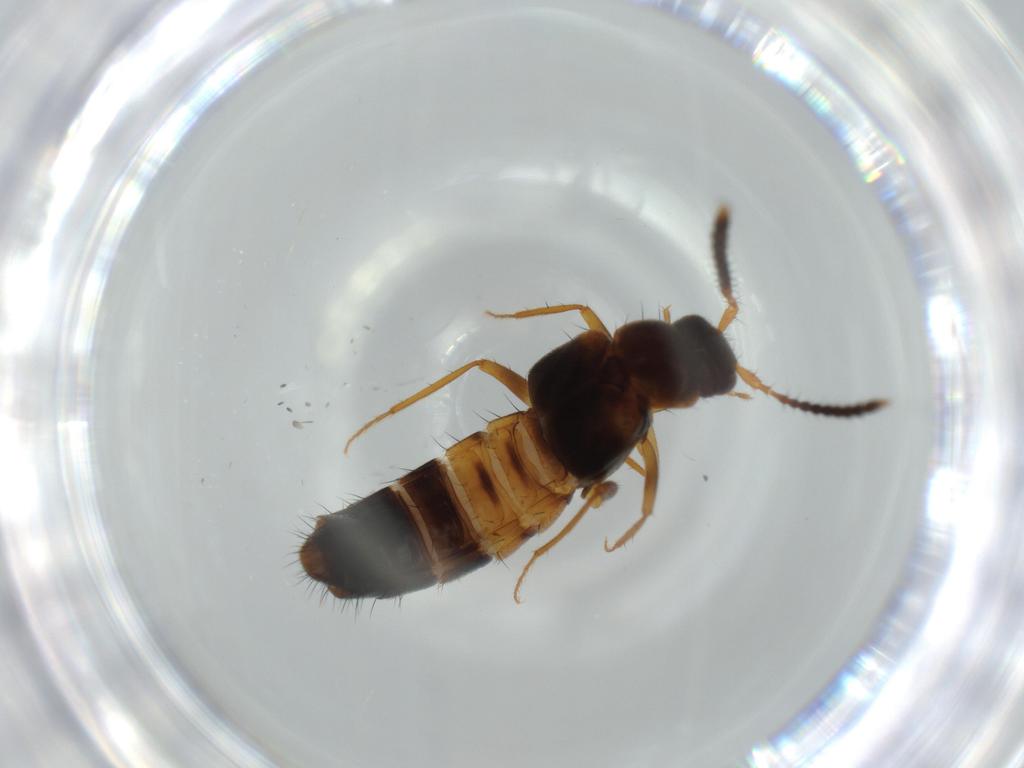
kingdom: Animalia
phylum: Arthropoda
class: Insecta
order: Coleoptera
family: Staphylinidae
